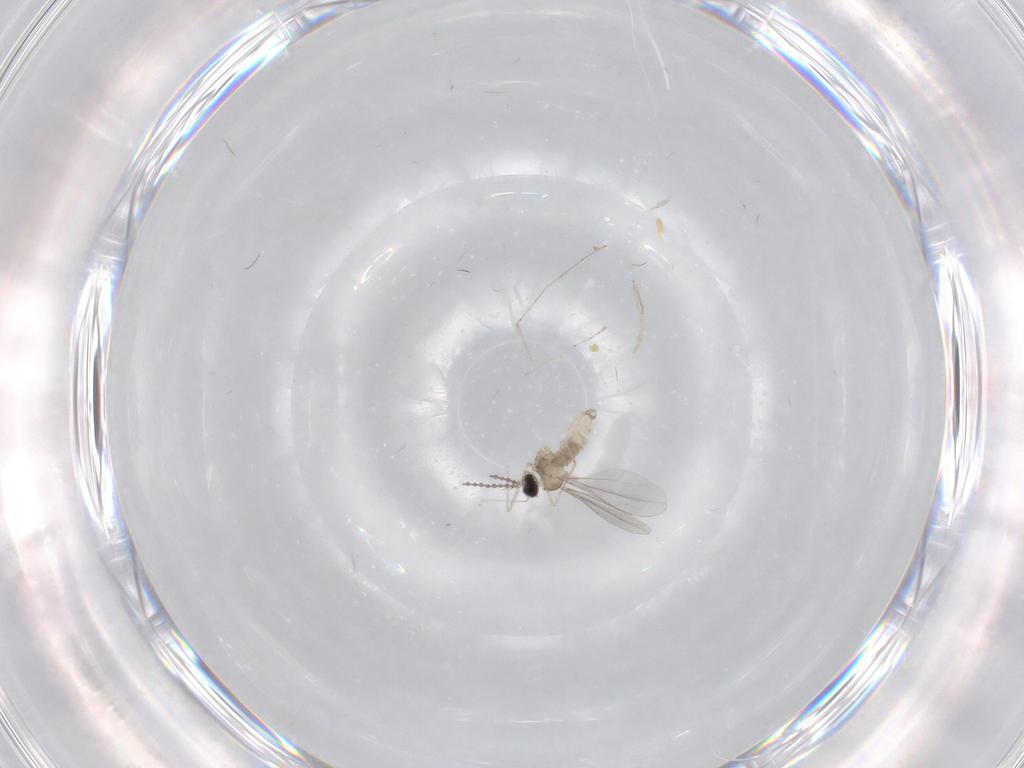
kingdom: Animalia
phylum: Arthropoda
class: Insecta
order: Diptera
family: Cecidomyiidae
